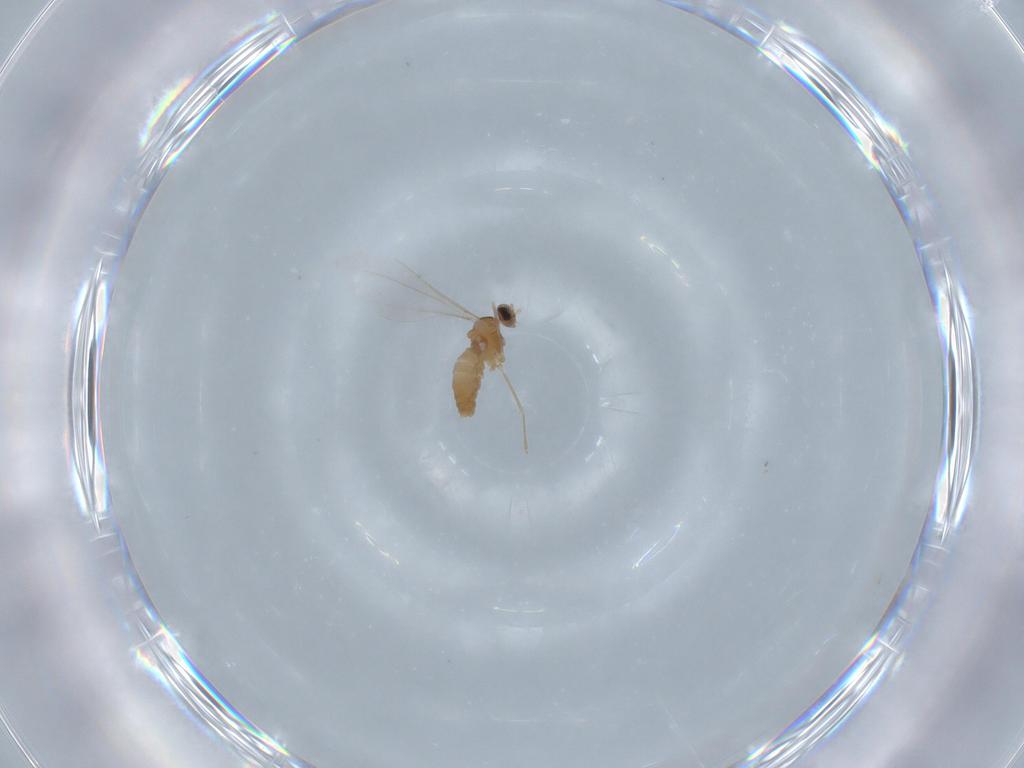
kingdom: Animalia
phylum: Arthropoda
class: Insecta
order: Diptera
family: Cecidomyiidae
